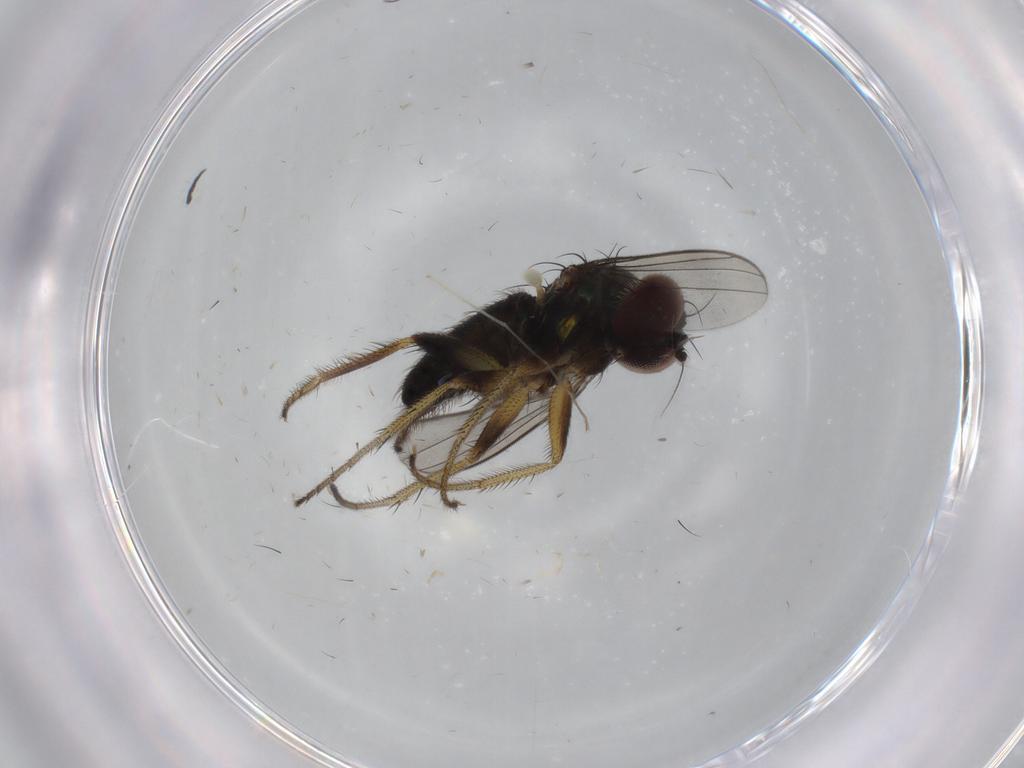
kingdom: Animalia
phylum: Arthropoda
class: Insecta
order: Diptera
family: Dolichopodidae
